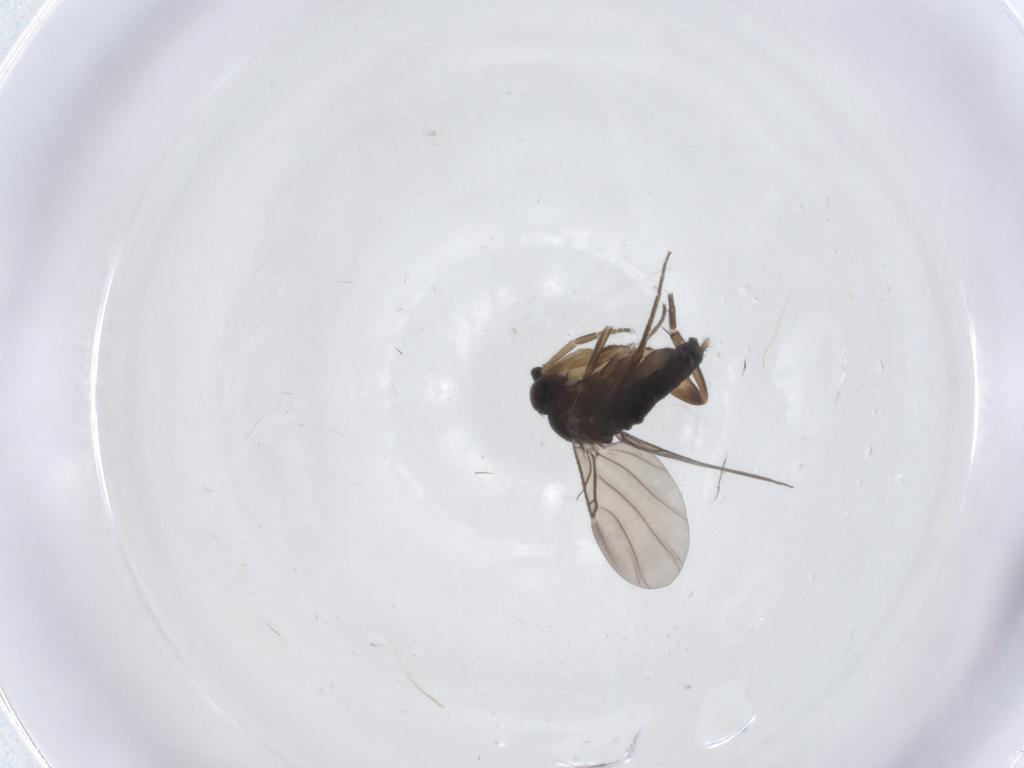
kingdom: Animalia
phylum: Arthropoda
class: Insecta
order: Diptera
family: Phoridae
